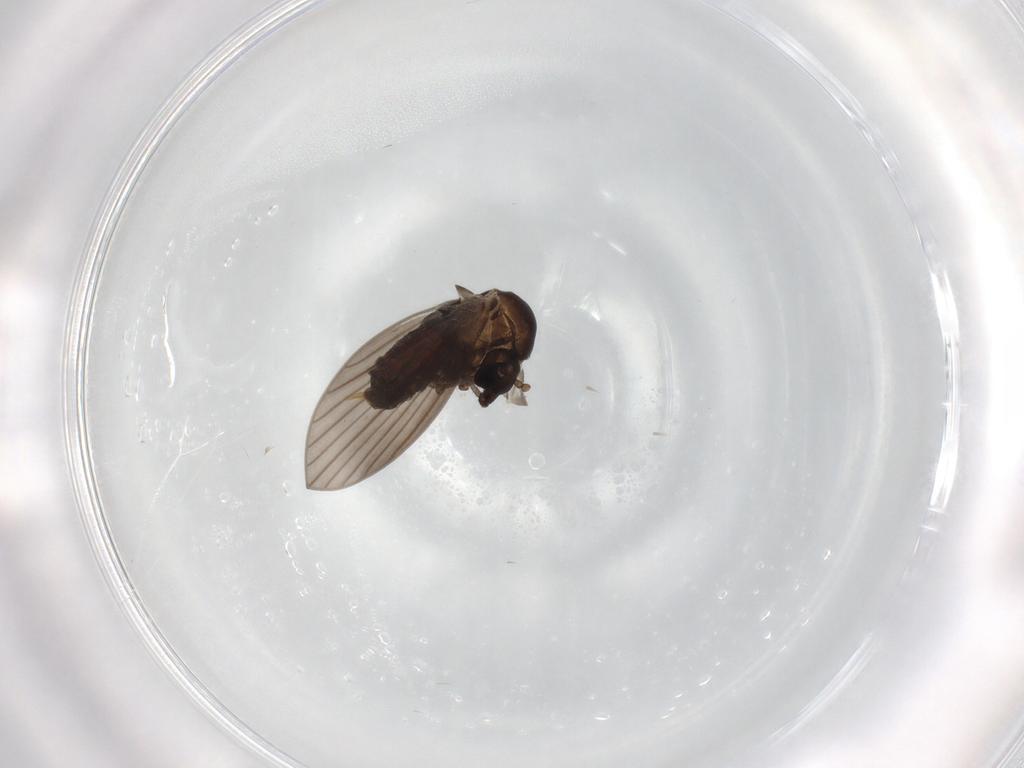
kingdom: Animalia
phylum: Arthropoda
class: Insecta
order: Diptera
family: Psychodidae
